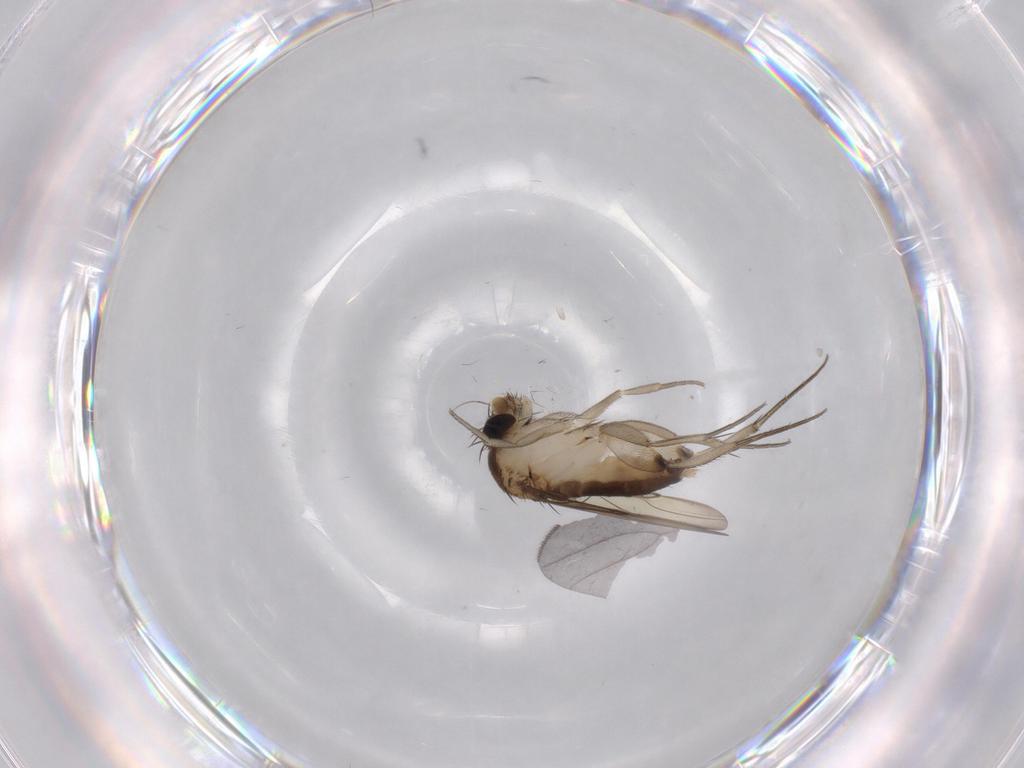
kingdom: Animalia
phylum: Arthropoda
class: Insecta
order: Diptera
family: Phoridae
